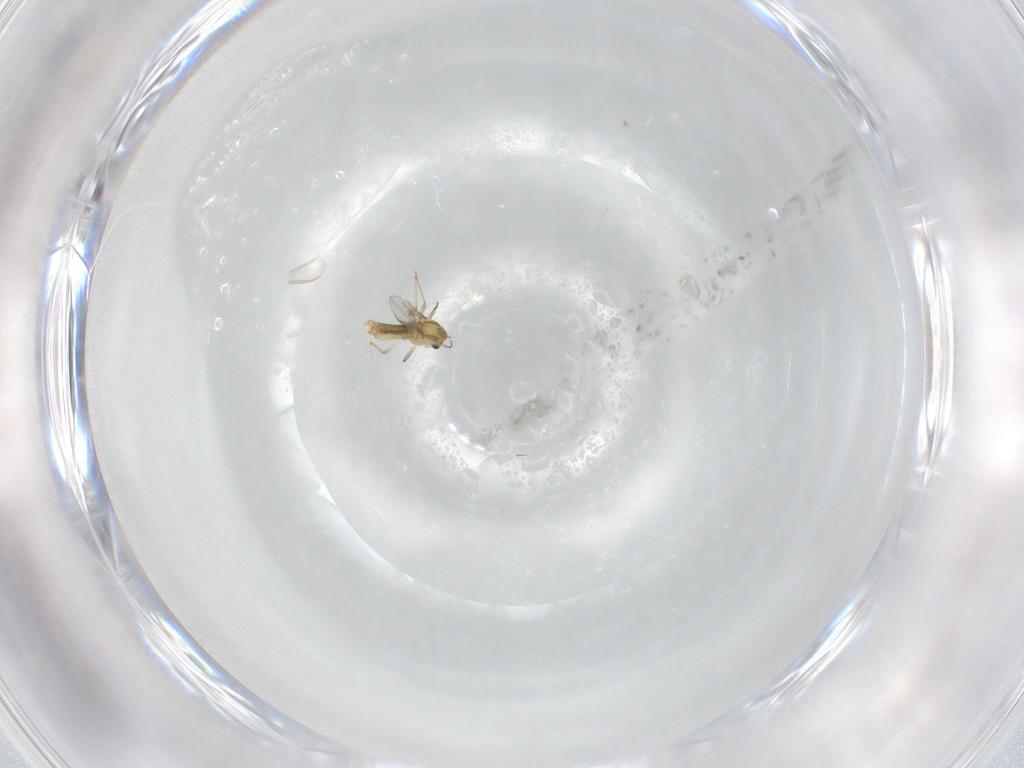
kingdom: Animalia
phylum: Arthropoda
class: Insecta
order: Diptera
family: Chironomidae
